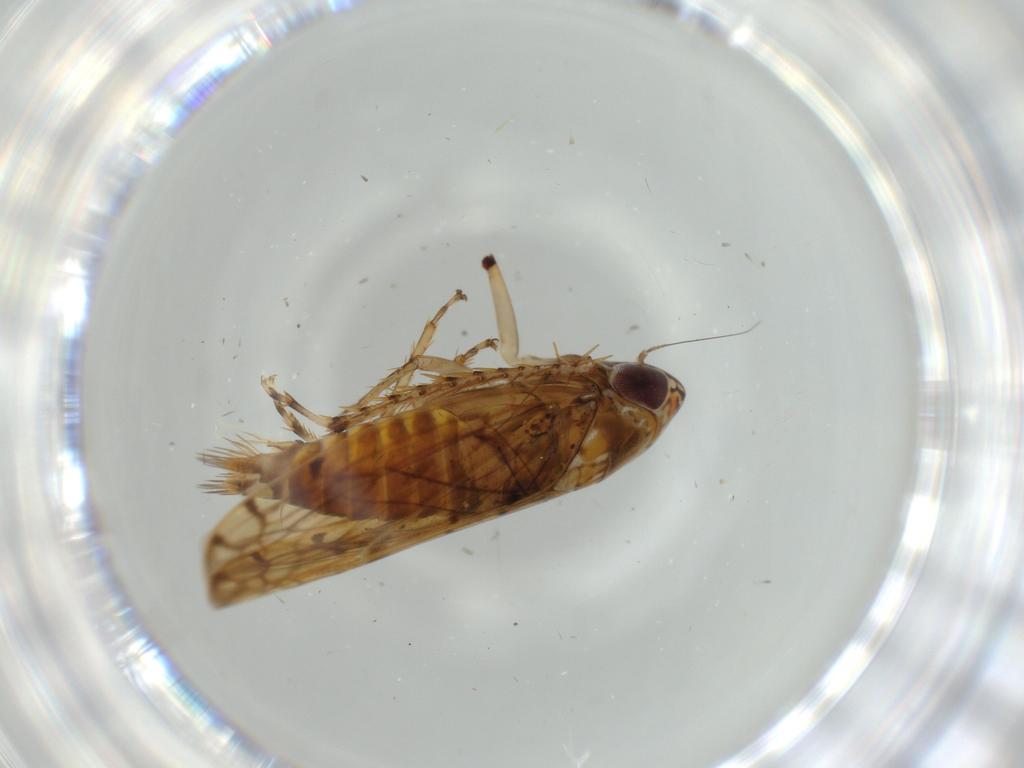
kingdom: Animalia
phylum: Arthropoda
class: Insecta
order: Hemiptera
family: Cicadellidae
